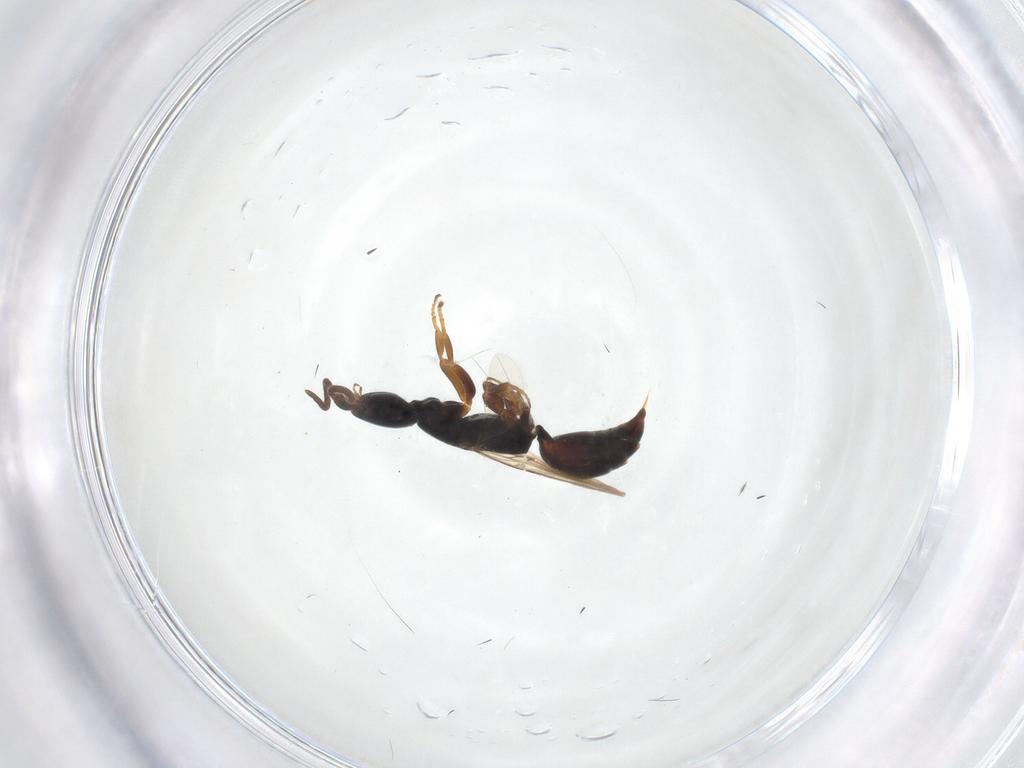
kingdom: Animalia
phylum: Arthropoda
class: Insecta
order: Hymenoptera
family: Bethylidae
